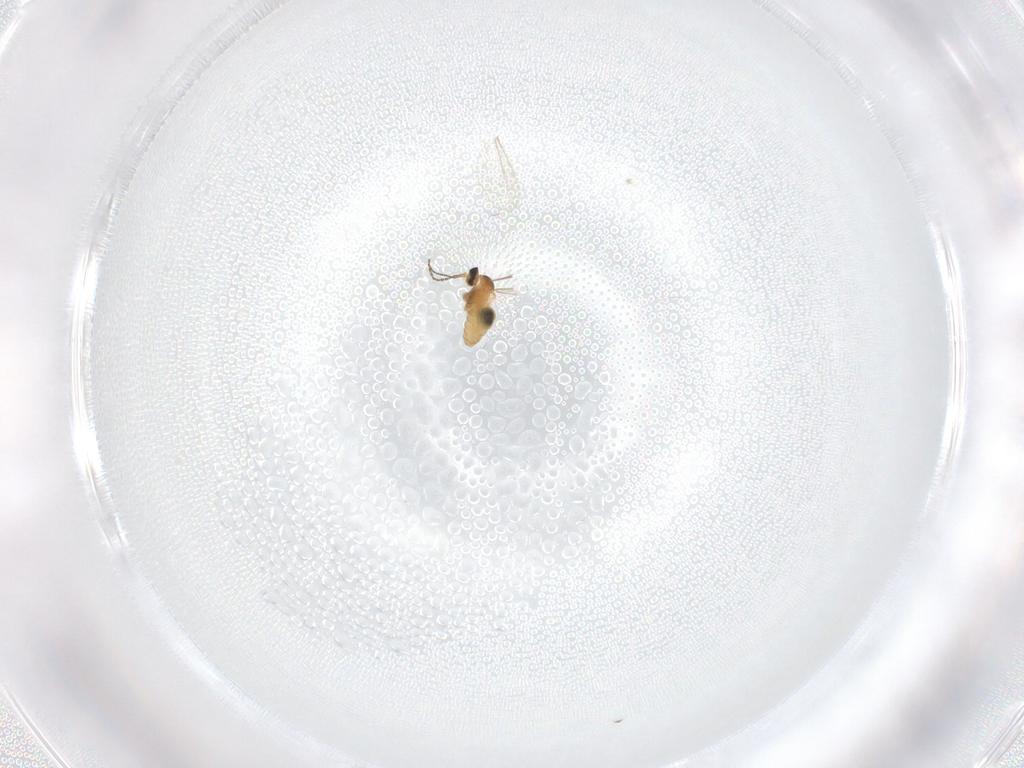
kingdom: Animalia
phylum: Arthropoda
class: Insecta
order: Diptera
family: Cecidomyiidae
